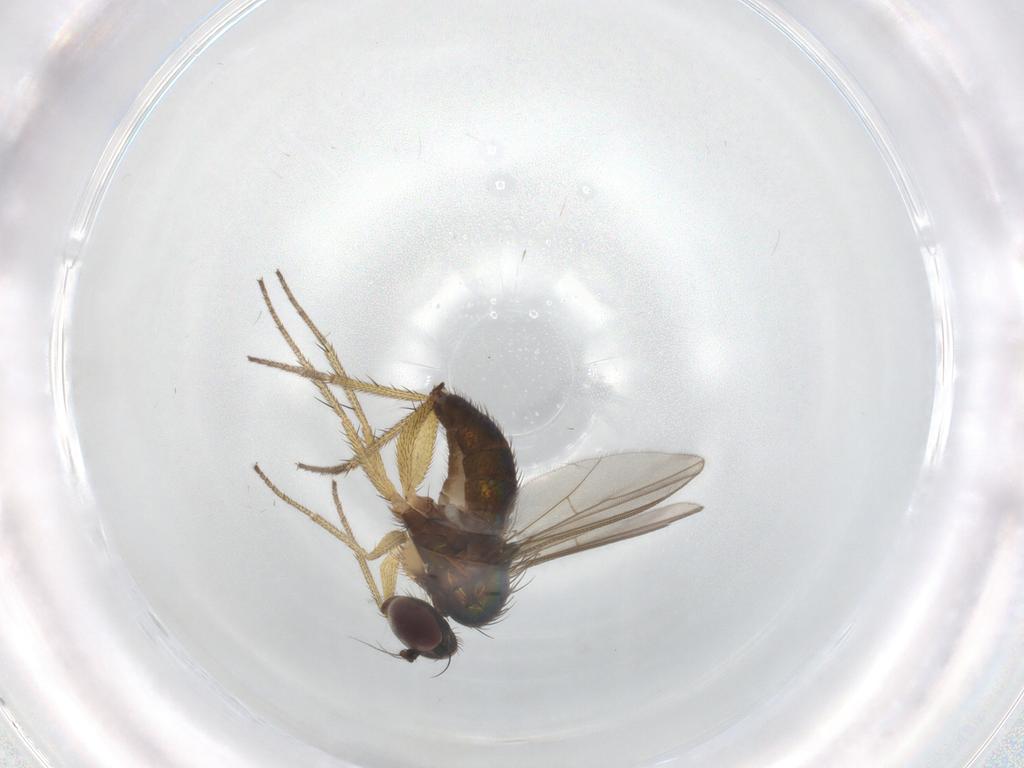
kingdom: Animalia
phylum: Arthropoda
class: Insecta
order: Diptera
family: Dolichopodidae
